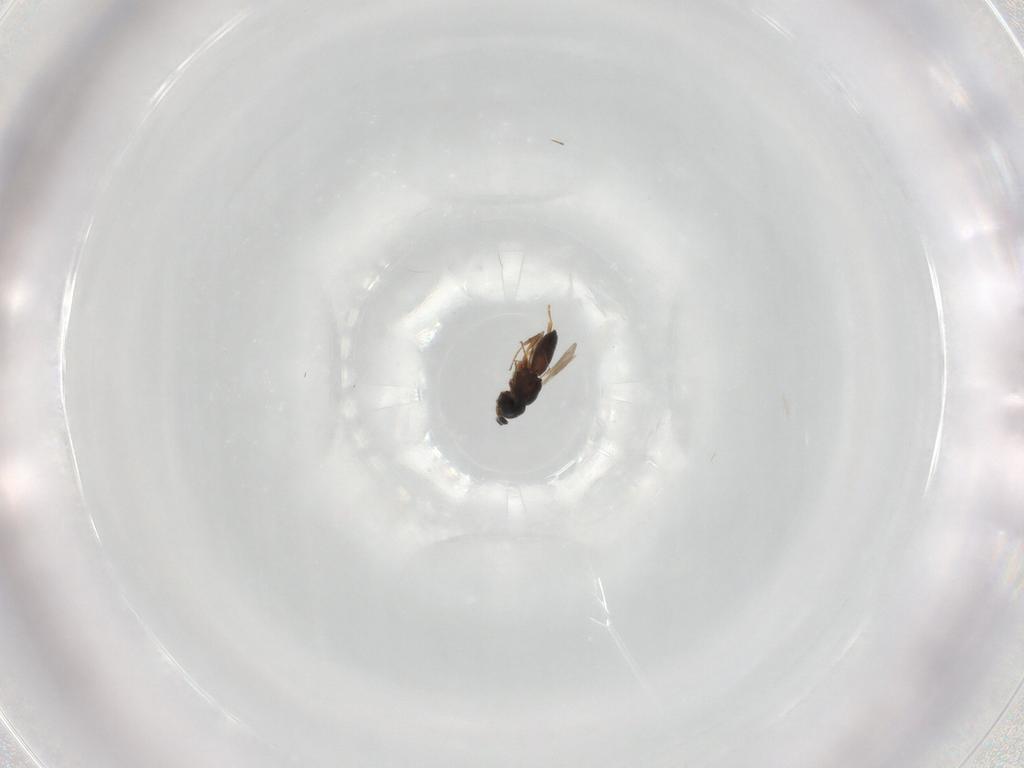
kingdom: Animalia
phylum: Arthropoda
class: Insecta
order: Hymenoptera
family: Scelionidae
